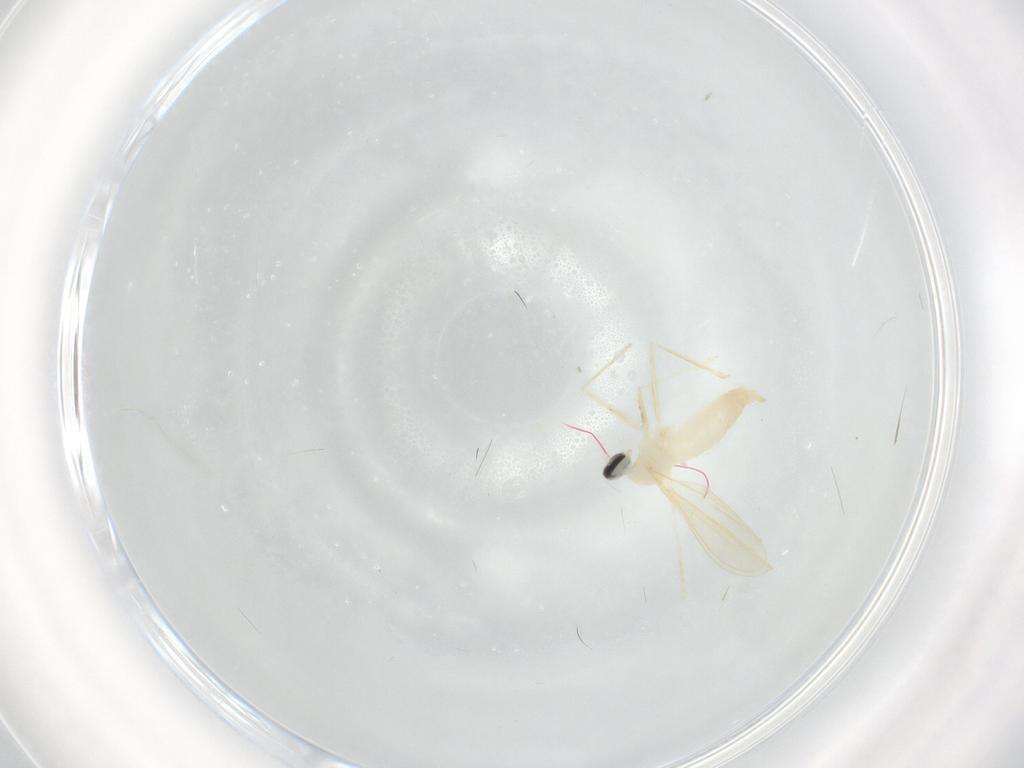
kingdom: Animalia
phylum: Arthropoda
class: Insecta
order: Diptera
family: Cecidomyiidae
